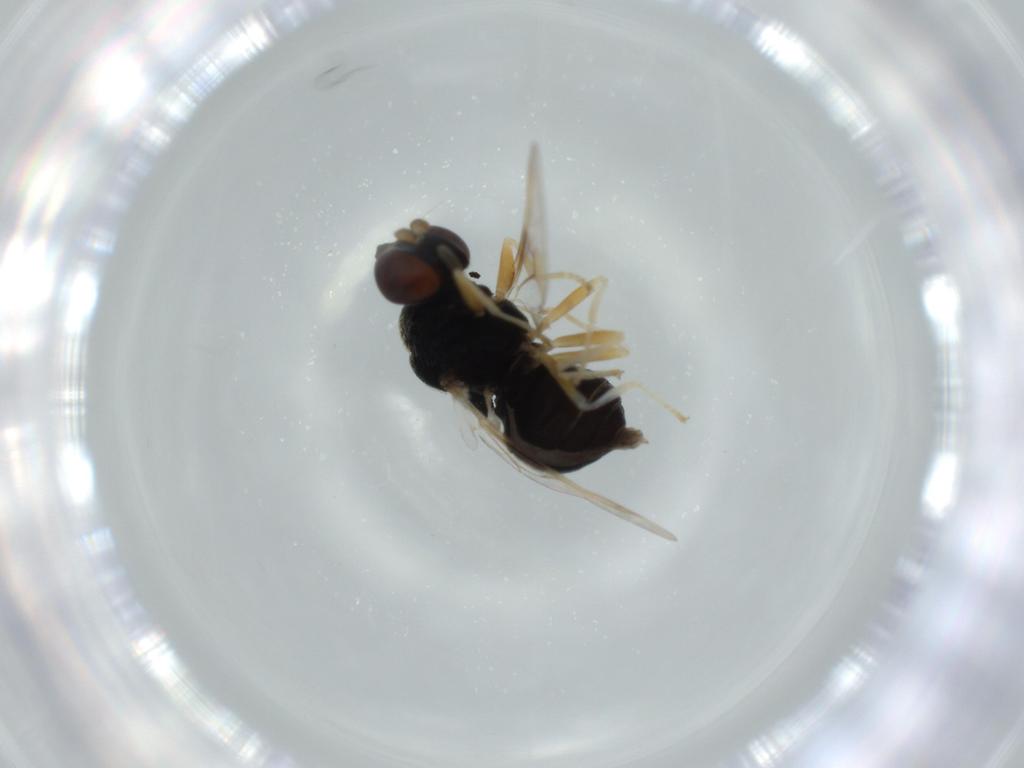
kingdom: Animalia
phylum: Arthropoda
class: Insecta
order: Diptera
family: Stratiomyidae
